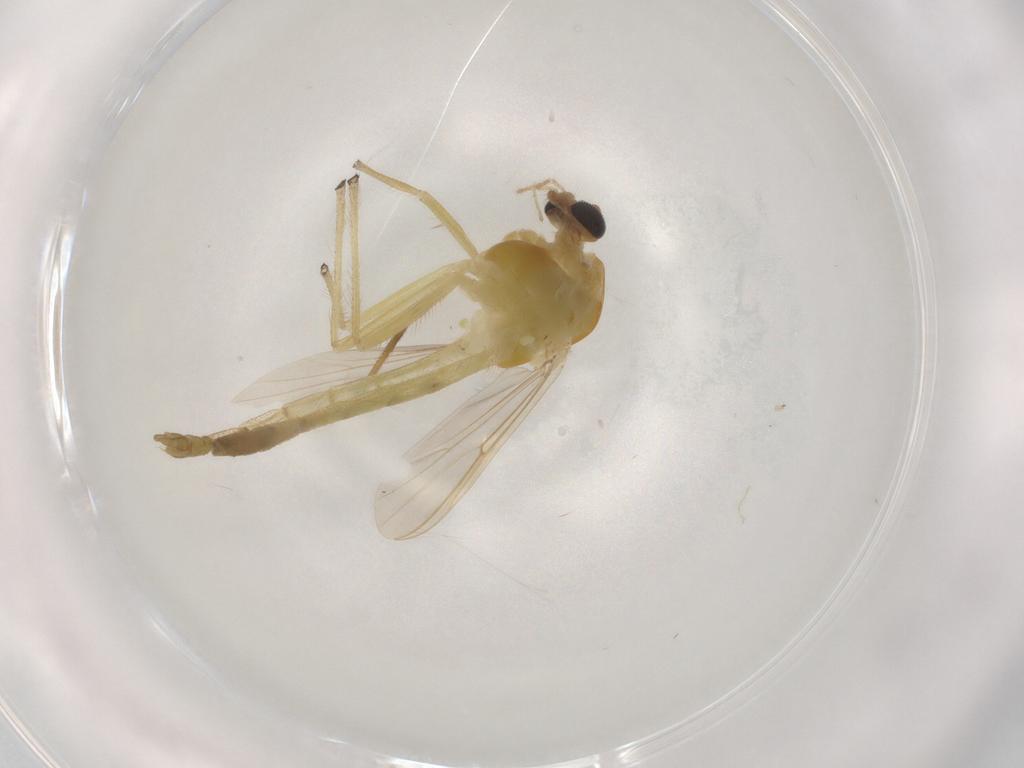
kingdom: Animalia
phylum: Arthropoda
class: Insecta
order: Diptera
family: Chironomidae
